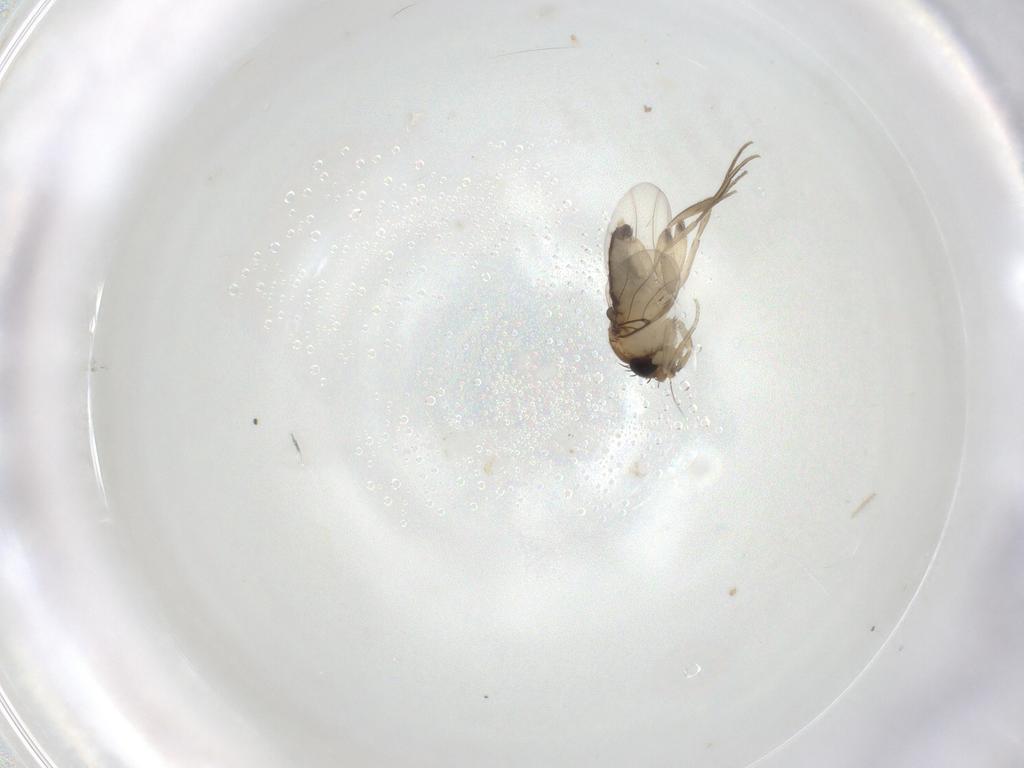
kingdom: Animalia
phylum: Arthropoda
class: Insecta
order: Diptera
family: Phoridae
